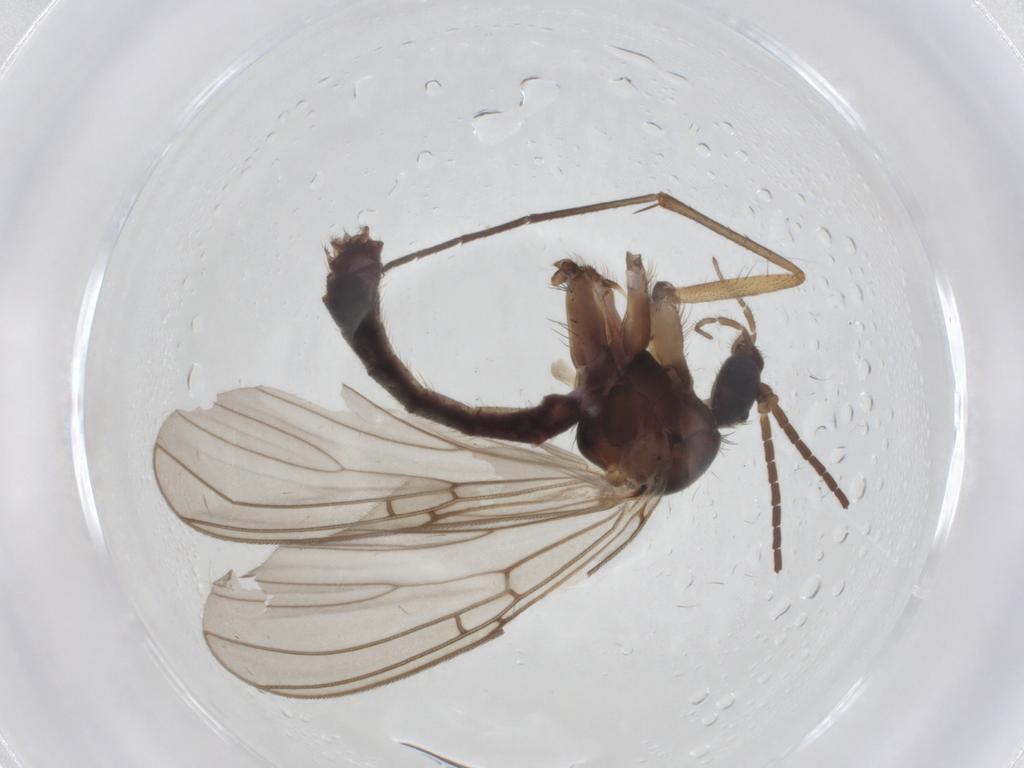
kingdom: Animalia
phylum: Arthropoda
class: Insecta
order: Diptera
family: Mycetophilidae
